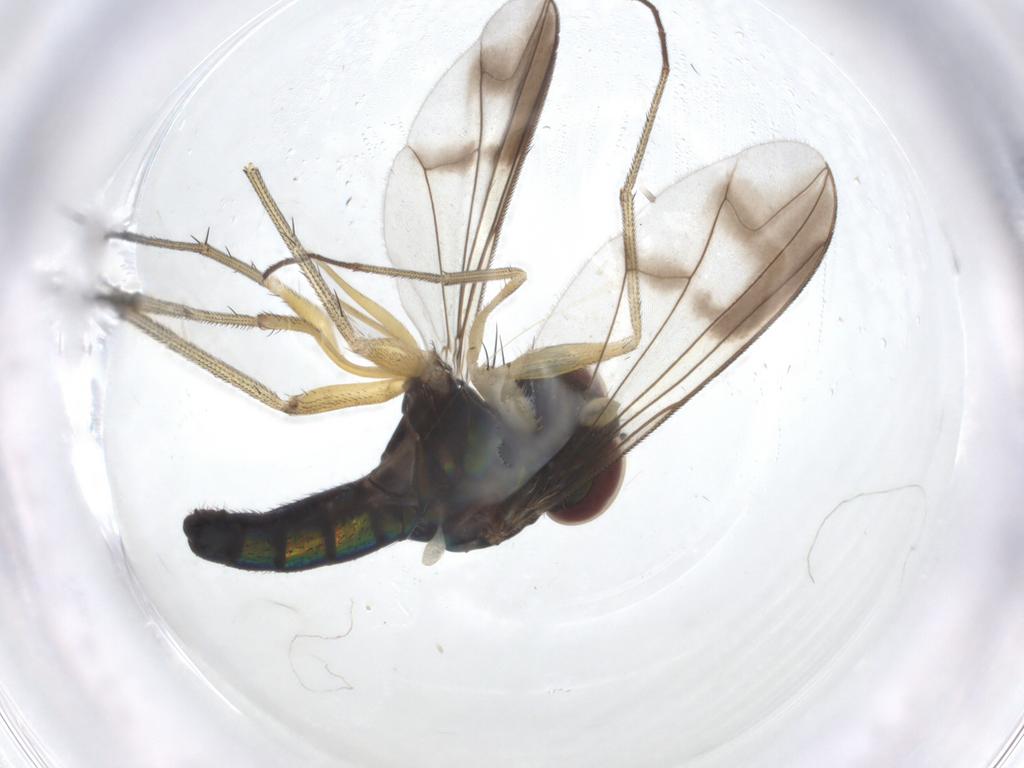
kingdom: Animalia
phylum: Arthropoda
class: Insecta
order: Diptera
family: Dolichopodidae
